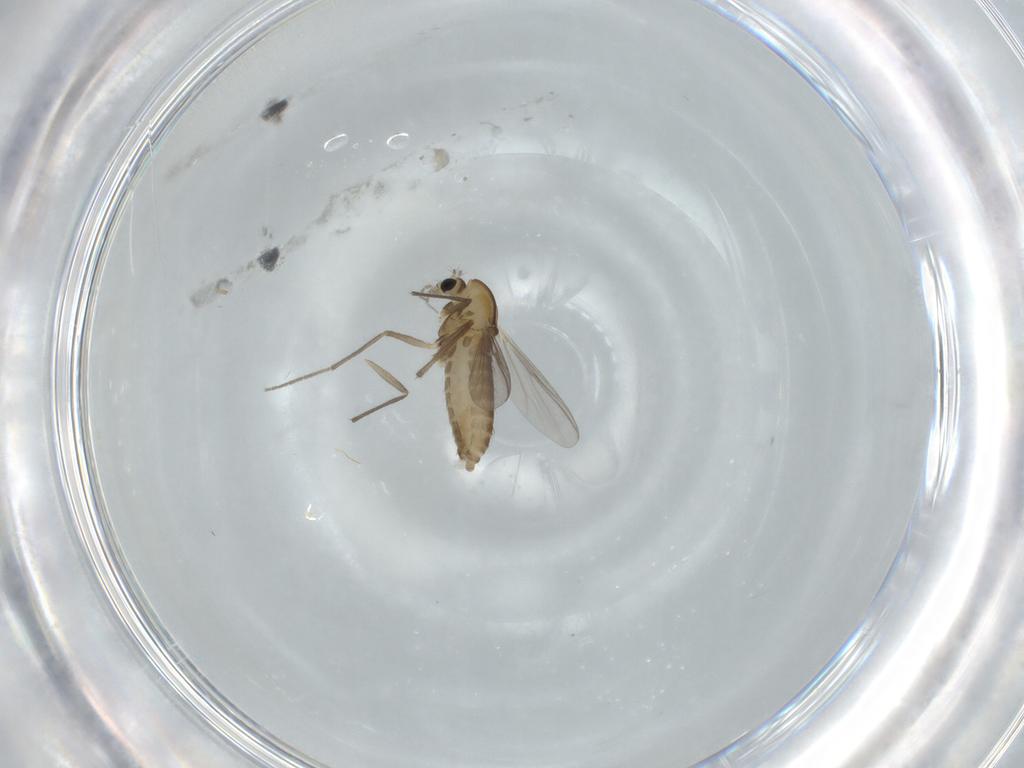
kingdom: Animalia
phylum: Arthropoda
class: Insecta
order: Diptera
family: Chironomidae
